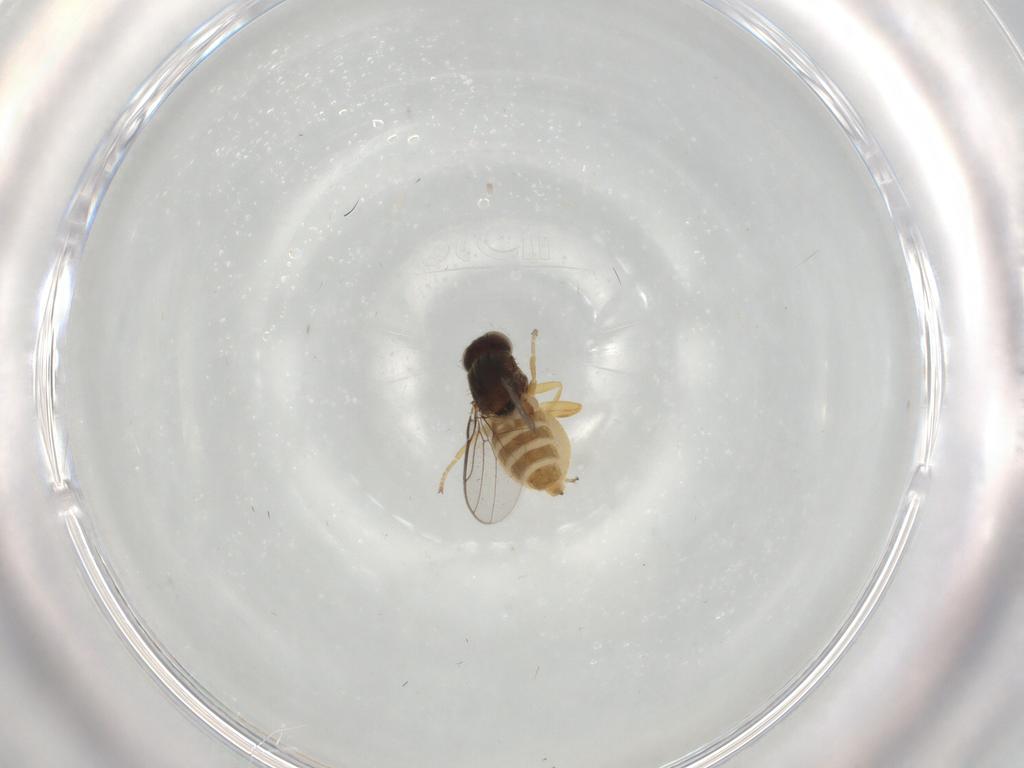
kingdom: Animalia
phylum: Arthropoda
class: Insecta
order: Diptera
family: Chloropidae
